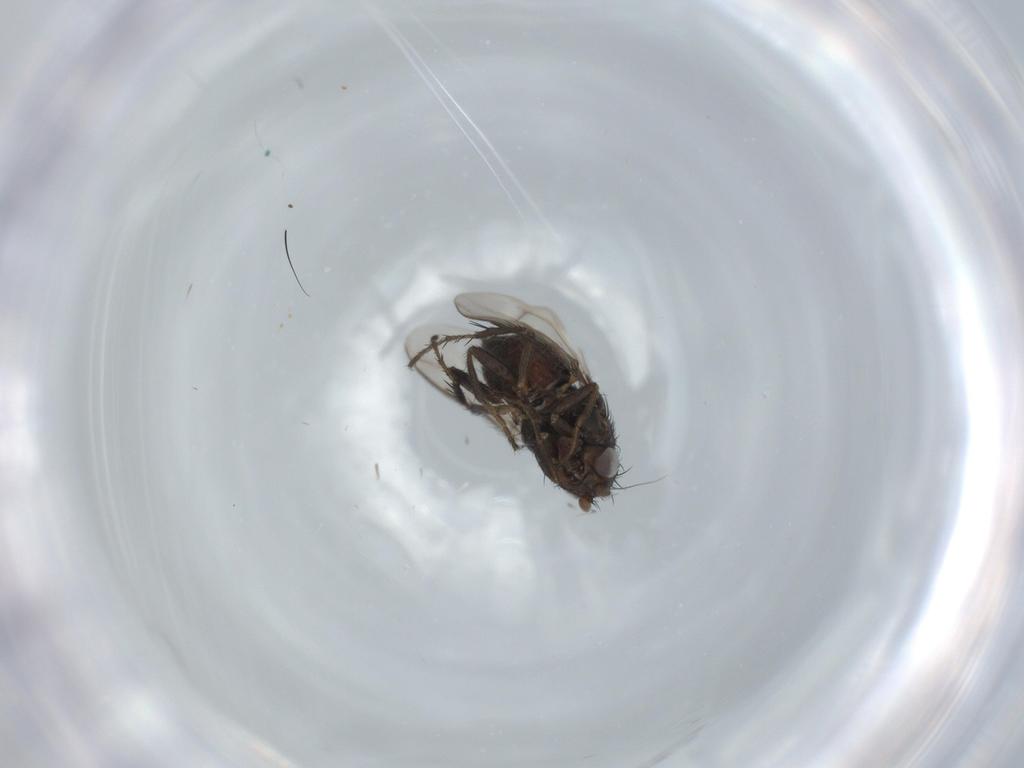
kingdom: Animalia
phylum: Arthropoda
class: Insecta
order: Diptera
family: Sphaeroceridae
